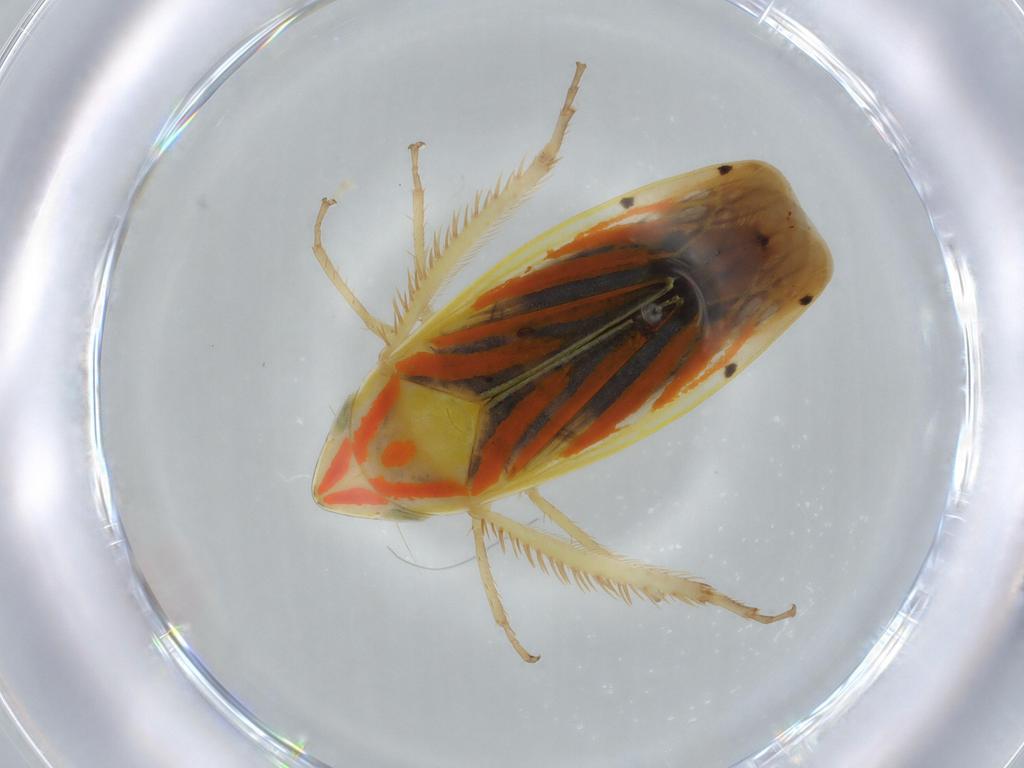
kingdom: Animalia
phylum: Arthropoda
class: Insecta
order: Hemiptera
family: Cicadellidae
